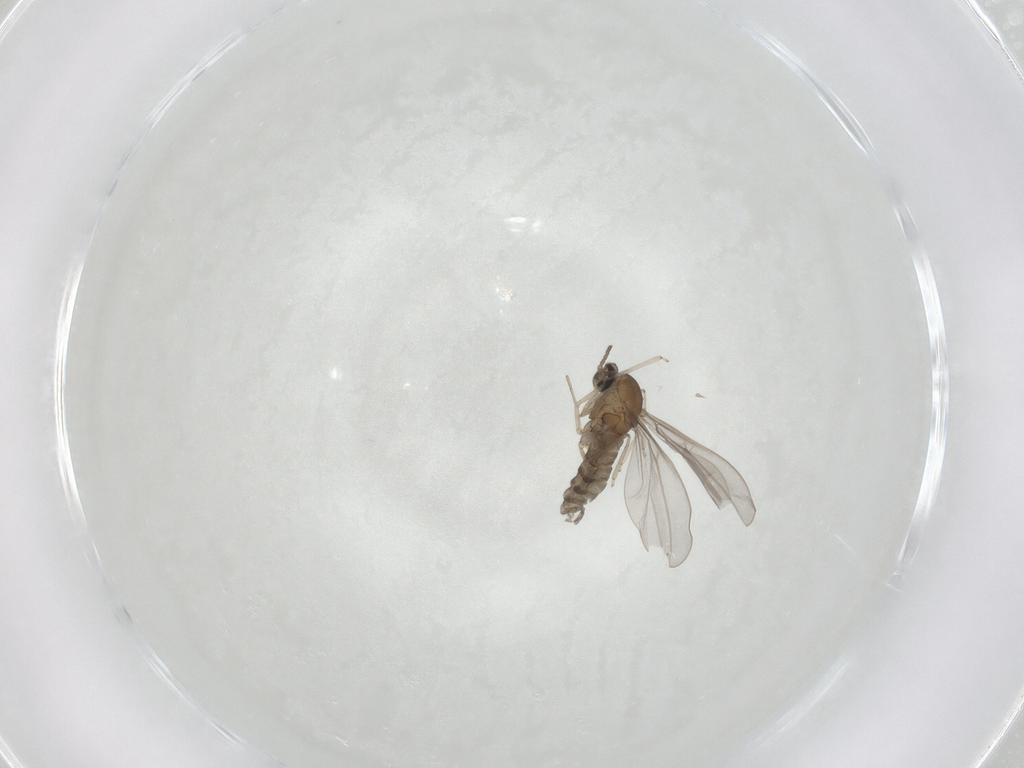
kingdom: Animalia
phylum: Arthropoda
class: Insecta
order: Diptera
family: Cecidomyiidae
